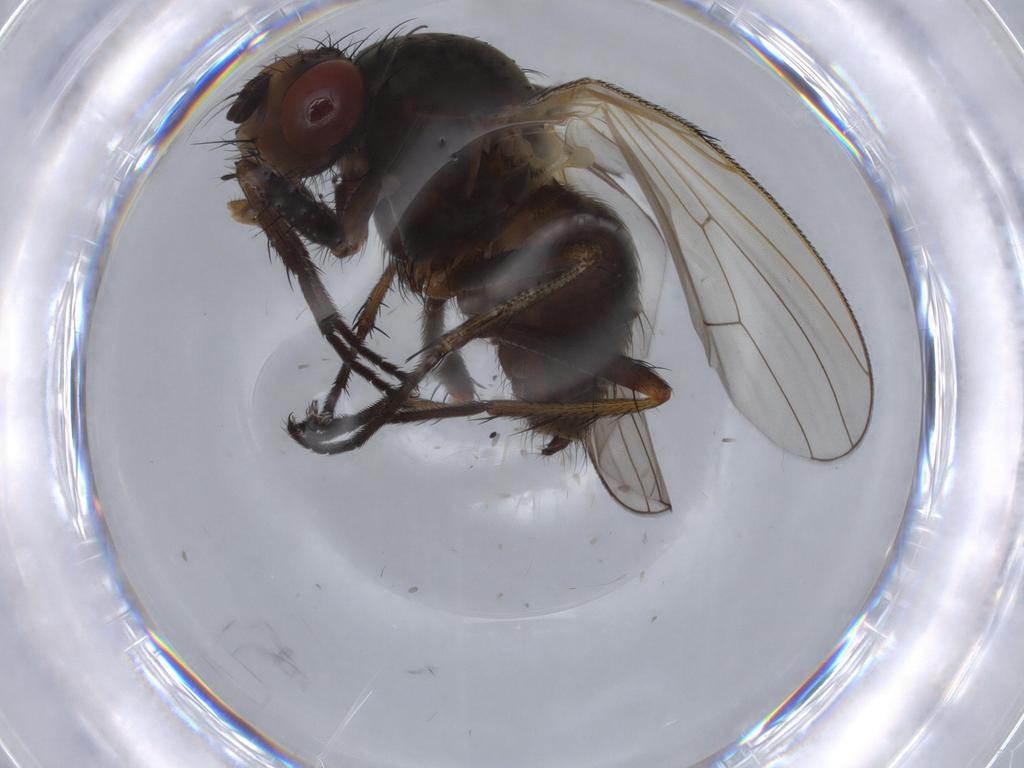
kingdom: Animalia
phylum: Arthropoda
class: Insecta
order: Diptera
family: Anthomyiidae
